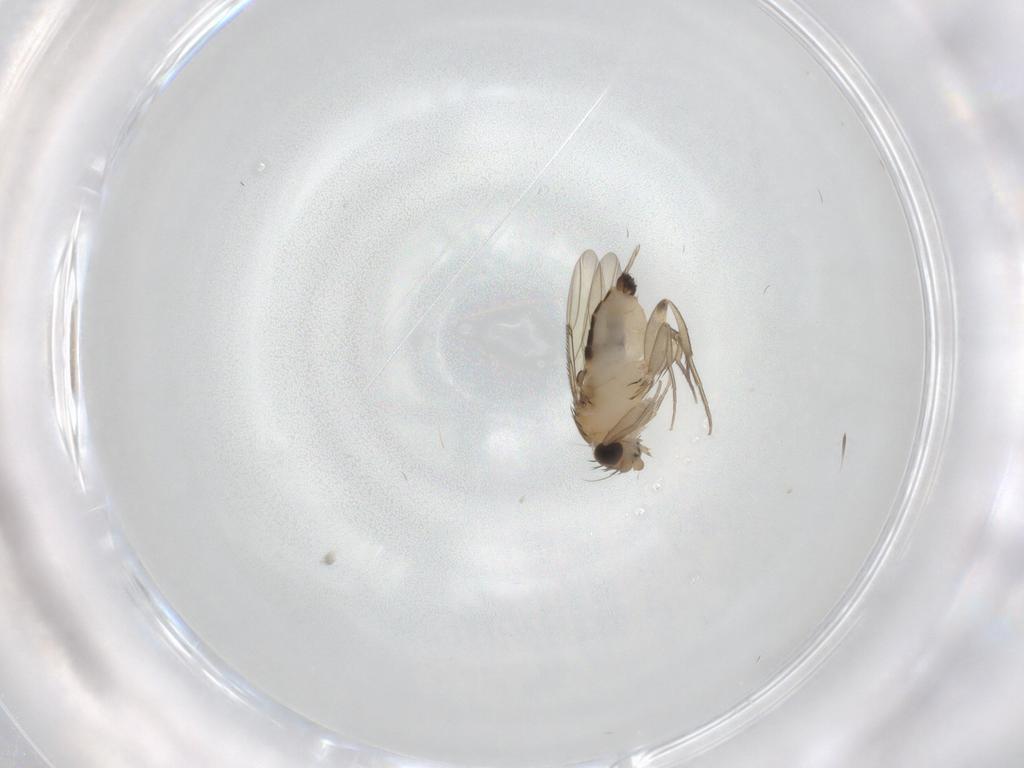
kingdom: Animalia
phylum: Arthropoda
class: Insecta
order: Diptera
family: Phoridae
